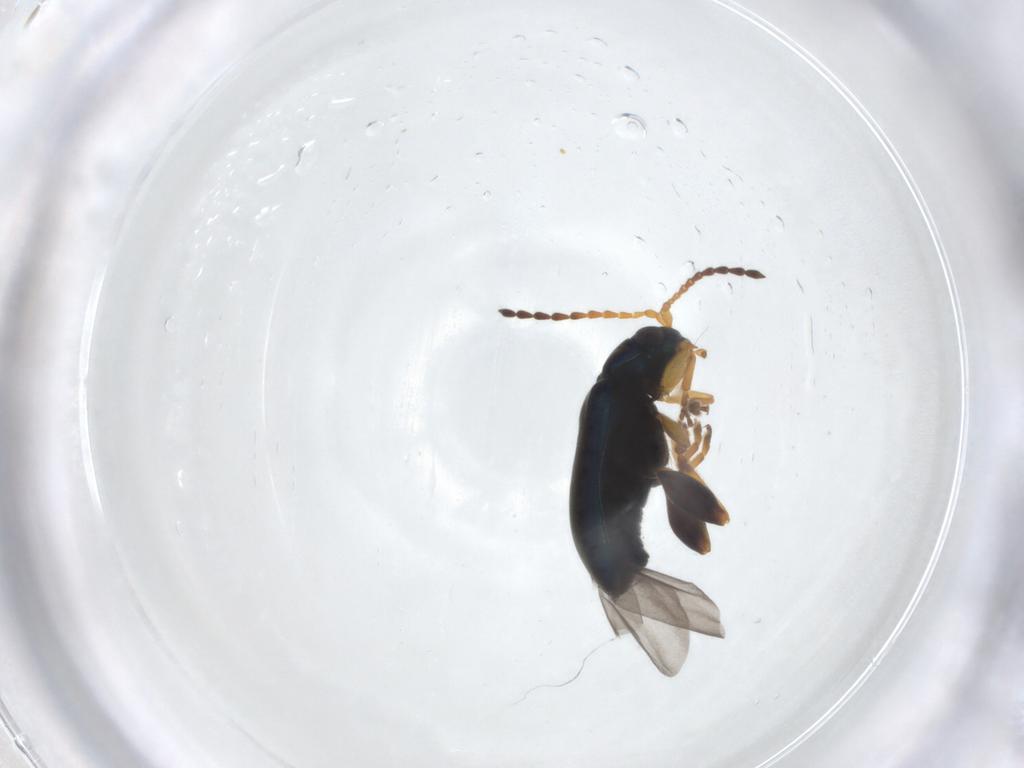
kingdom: Animalia
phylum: Arthropoda
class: Insecta
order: Coleoptera
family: Chrysomelidae
